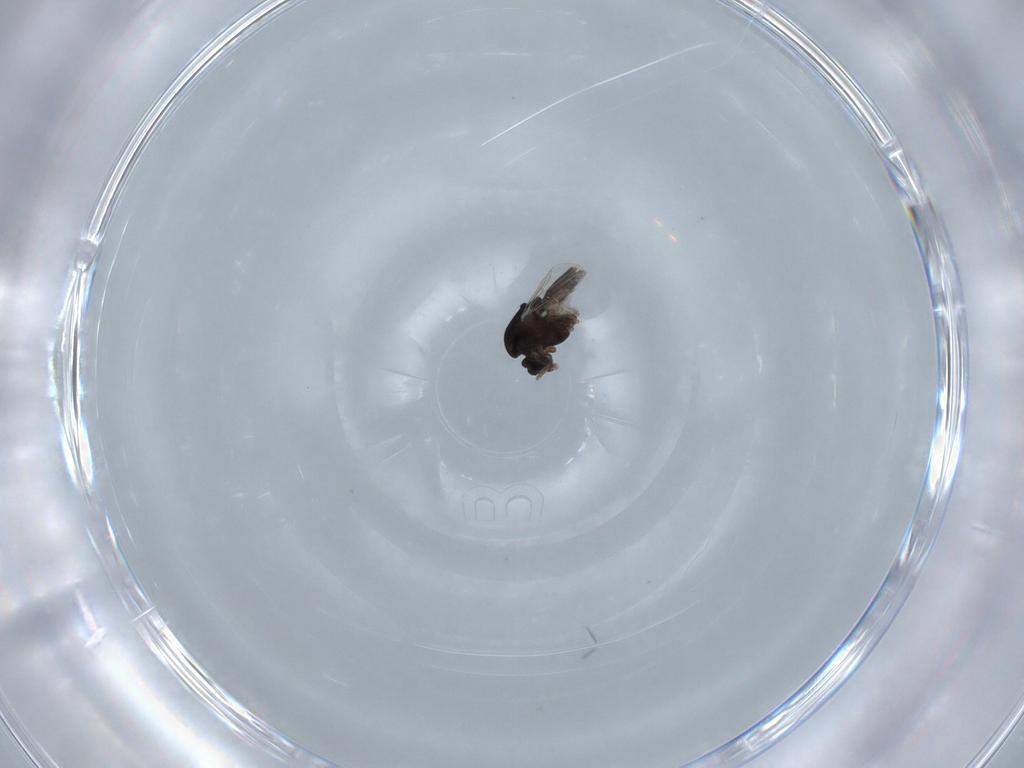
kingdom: Animalia
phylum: Arthropoda
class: Insecta
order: Diptera
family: Chironomidae
